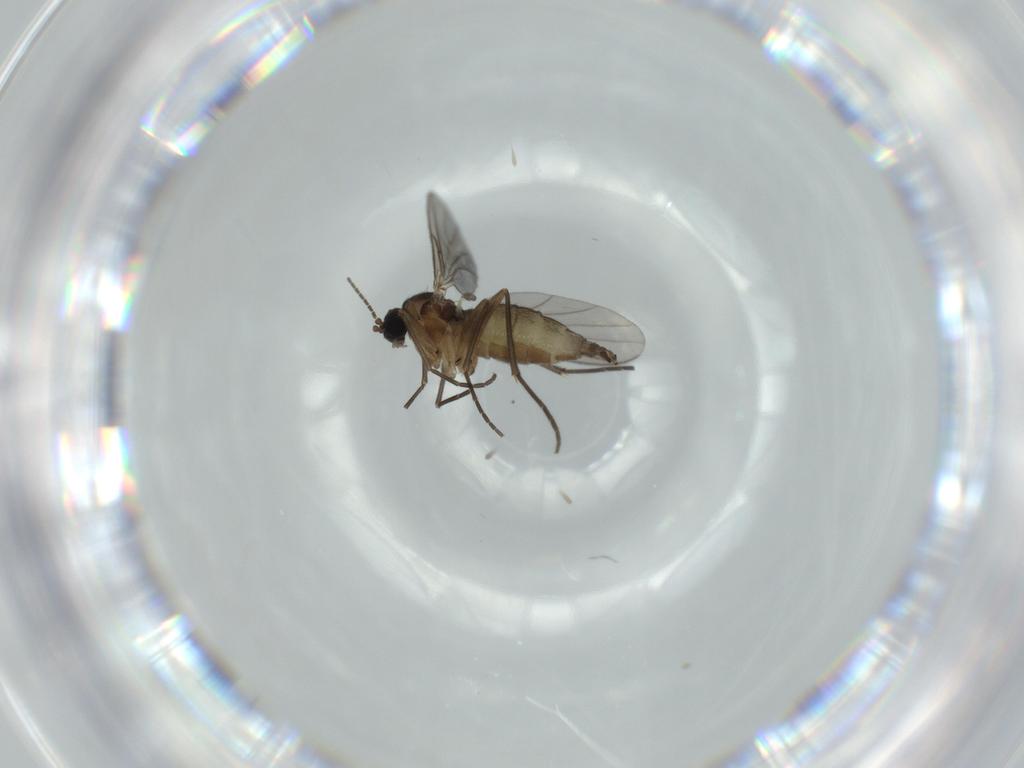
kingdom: Animalia
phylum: Arthropoda
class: Insecta
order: Diptera
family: Sciaridae
